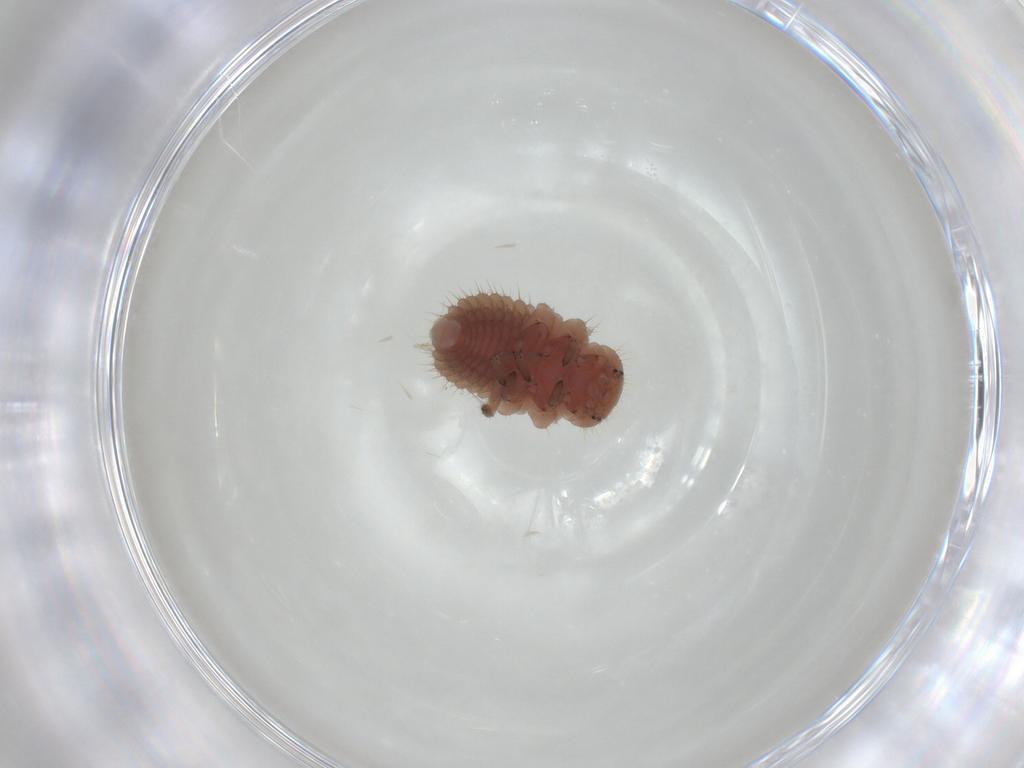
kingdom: Animalia
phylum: Arthropoda
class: Insecta
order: Coleoptera
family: Coccinellidae
